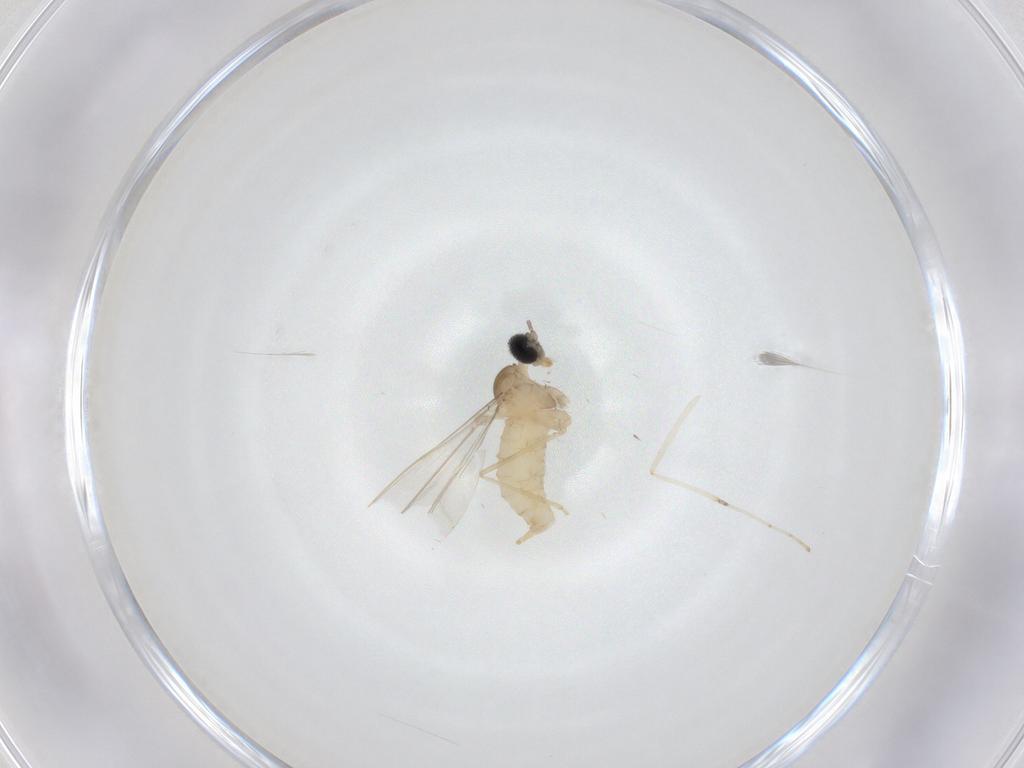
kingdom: Animalia
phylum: Arthropoda
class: Insecta
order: Diptera
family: Cecidomyiidae
